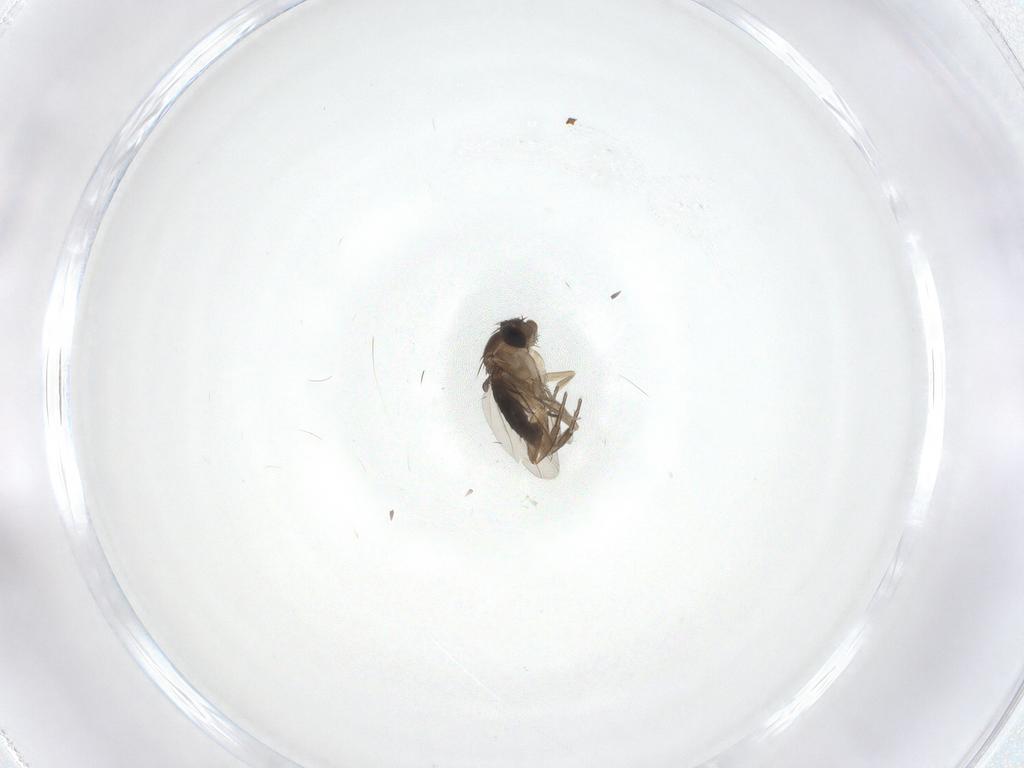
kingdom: Animalia
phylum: Arthropoda
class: Insecta
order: Diptera
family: Phoridae
